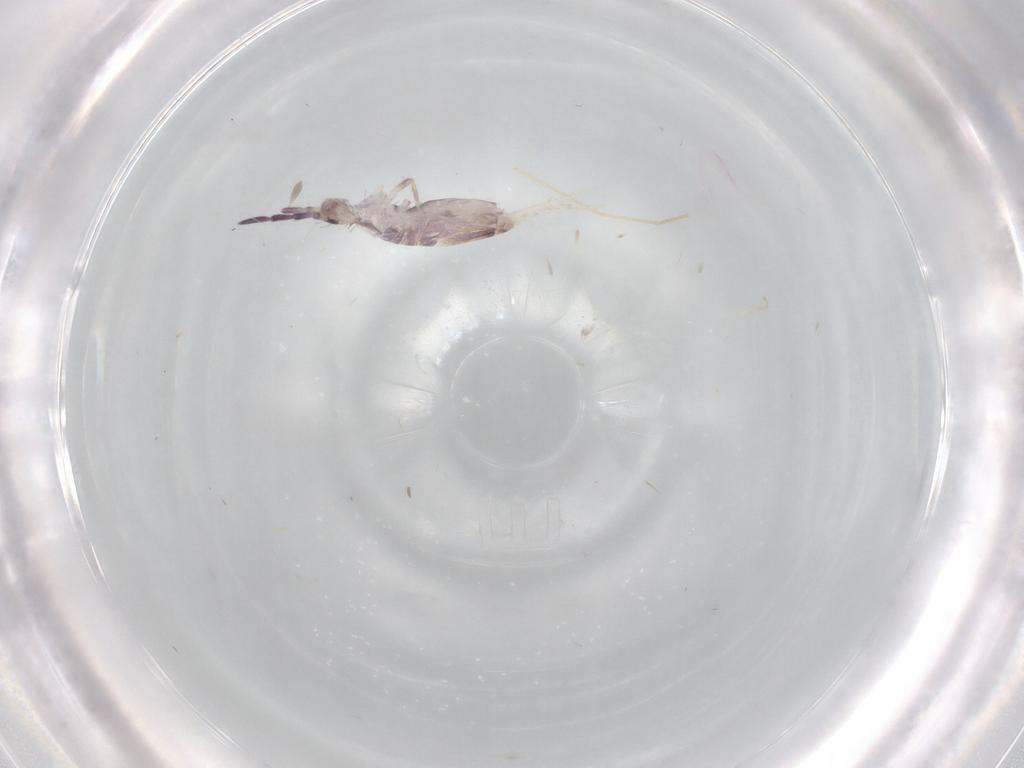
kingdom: Animalia
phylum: Arthropoda
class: Collembola
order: Poduromorpha
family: Hypogastruridae
